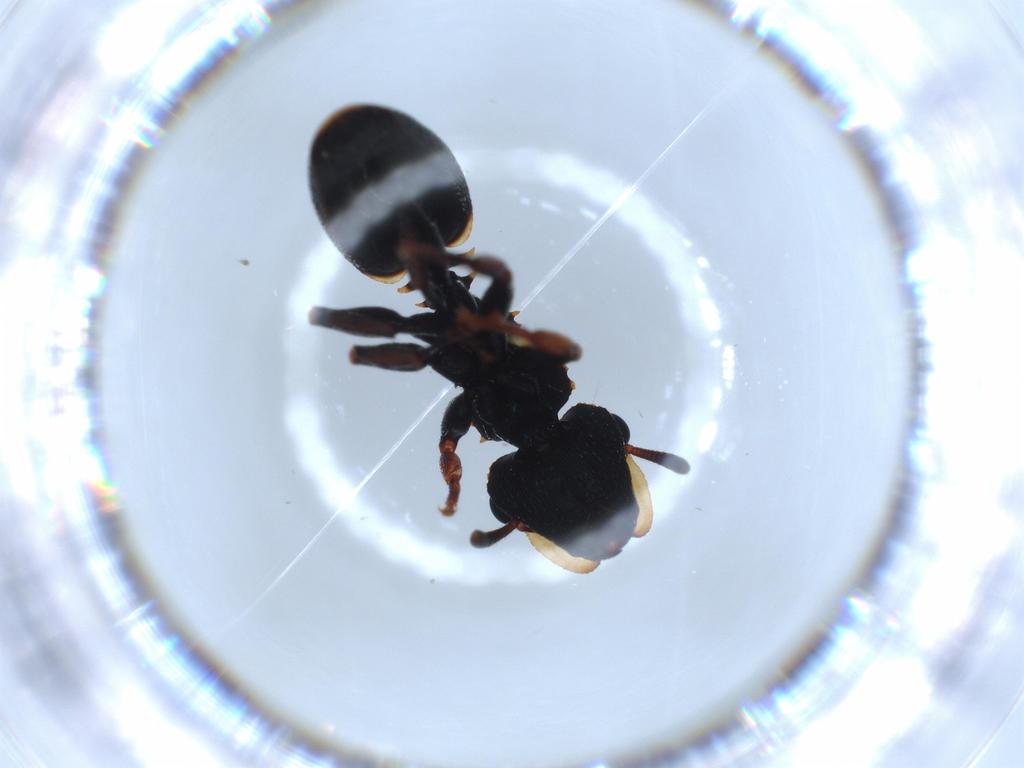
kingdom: Animalia
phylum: Arthropoda
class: Insecta
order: Hymenoptera
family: Formicidae
